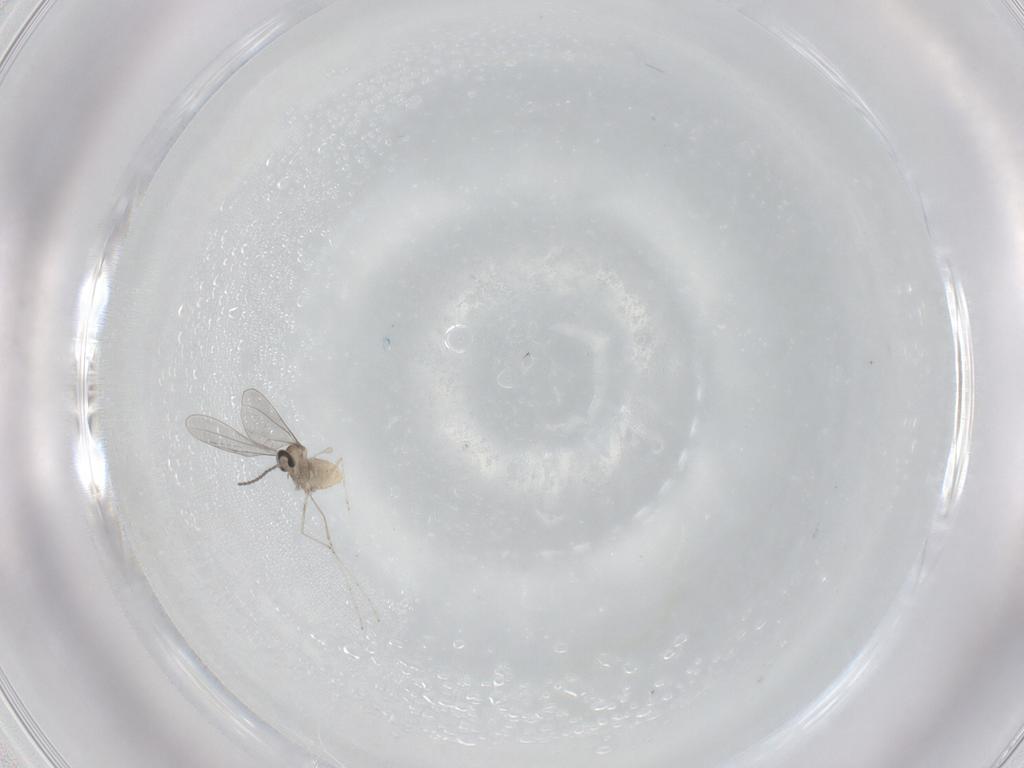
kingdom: Animalia
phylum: Arthropoda
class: Insecta
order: Diptera
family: Cecidomyiidae
